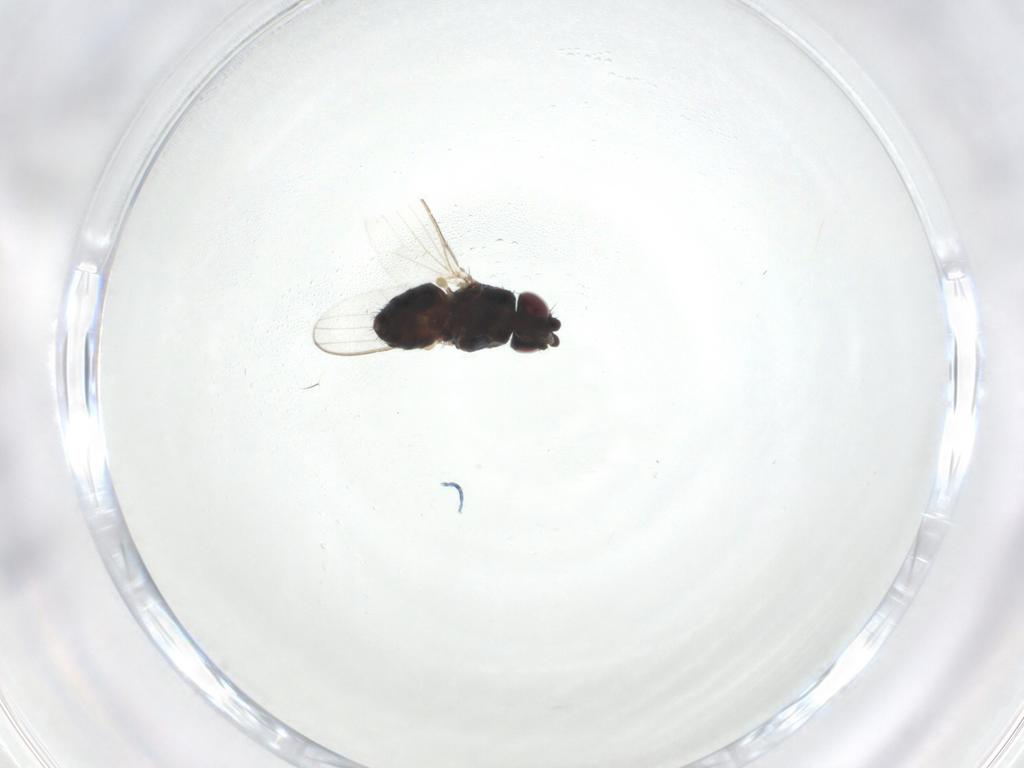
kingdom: Animalia
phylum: Arthropoda
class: Insecta
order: Diptera
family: Milichiidae
